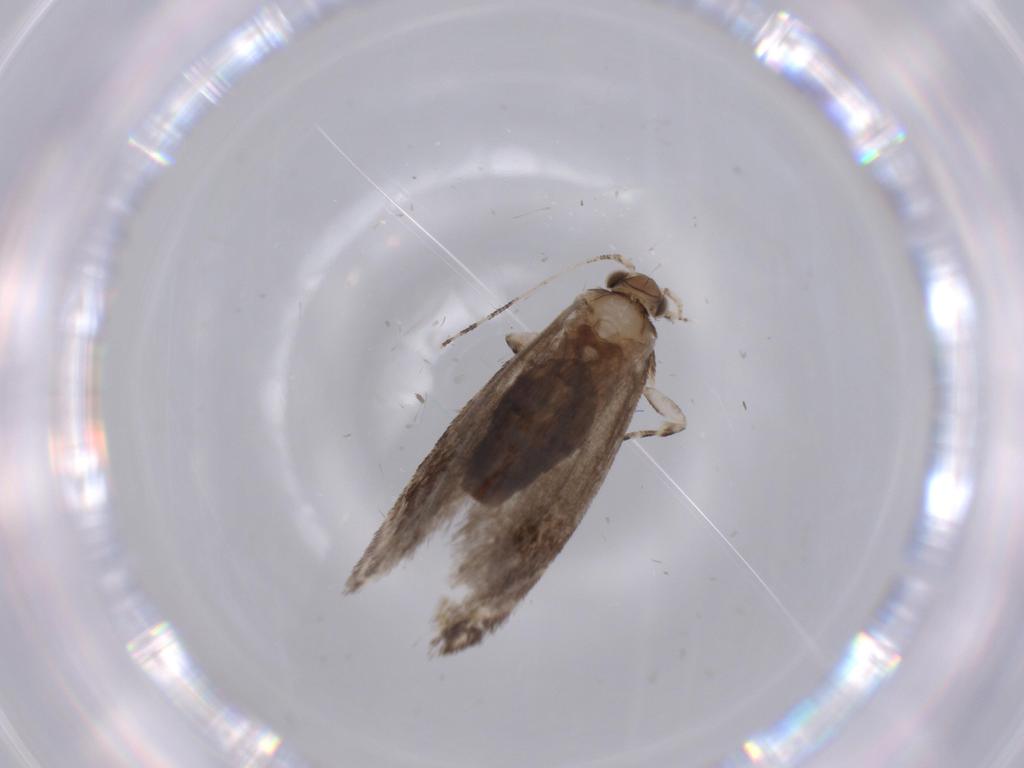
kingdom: Animalia
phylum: Arthropoda
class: Insecta
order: Lepidoptera
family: Tineidae
